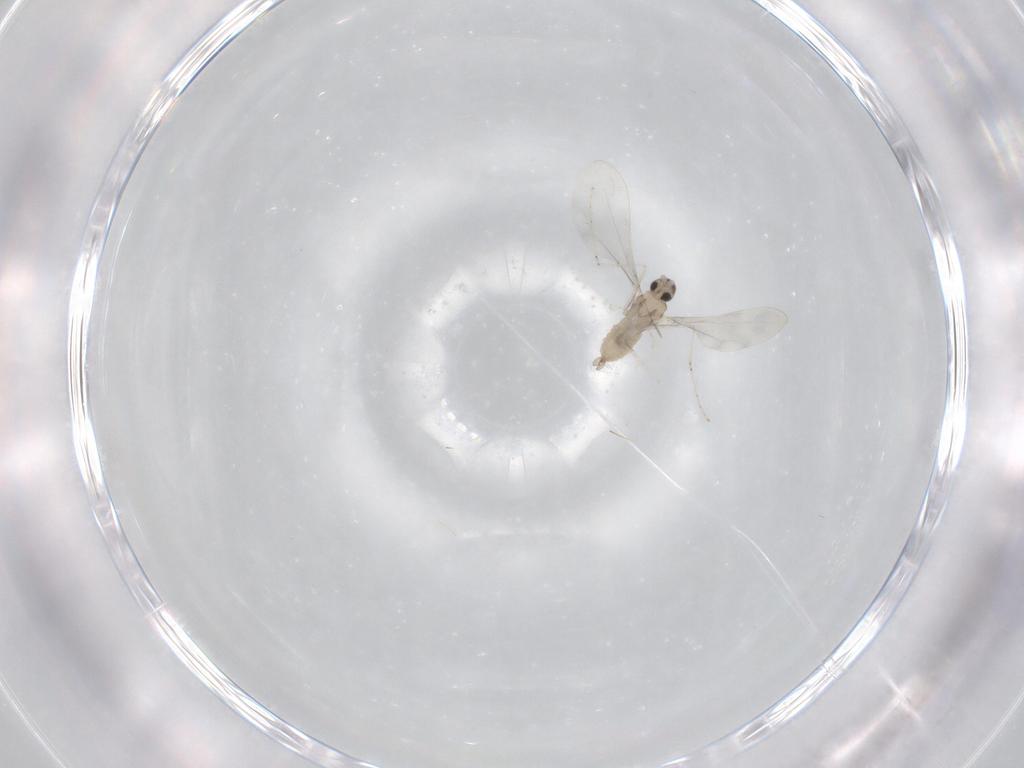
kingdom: Animalia
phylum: Arthropoda
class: Insecta
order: Diptera
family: Cecidomyiidae
